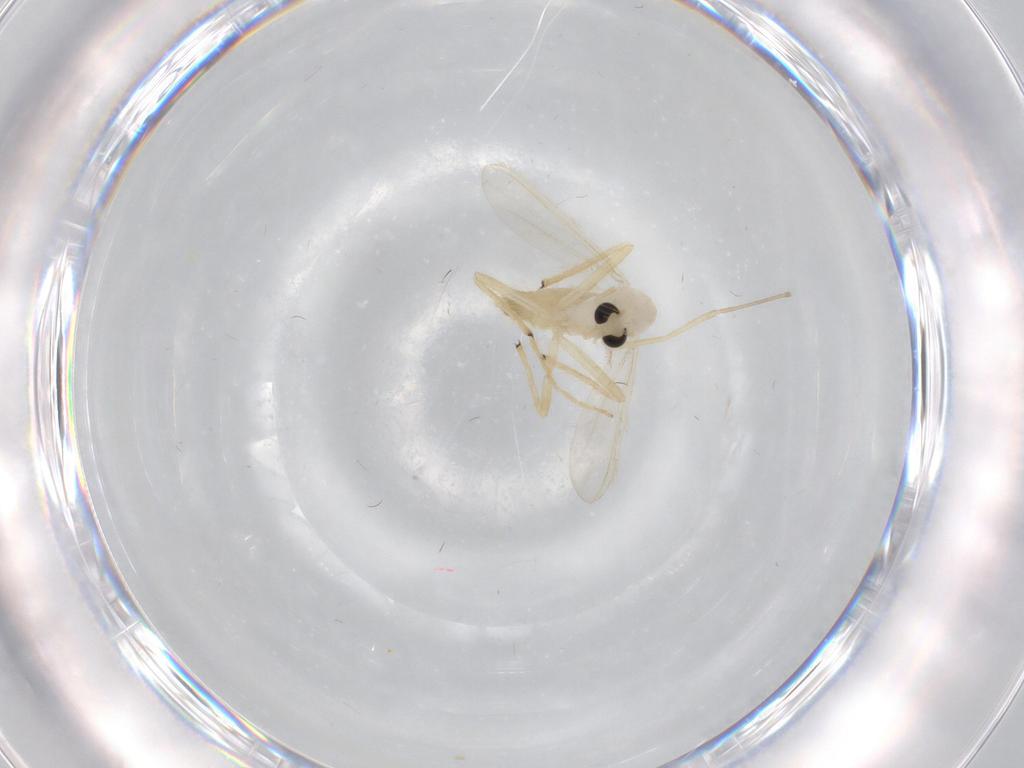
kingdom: Animalia
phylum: Arthropoda
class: Insecta
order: Diptera
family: Chironomidae
